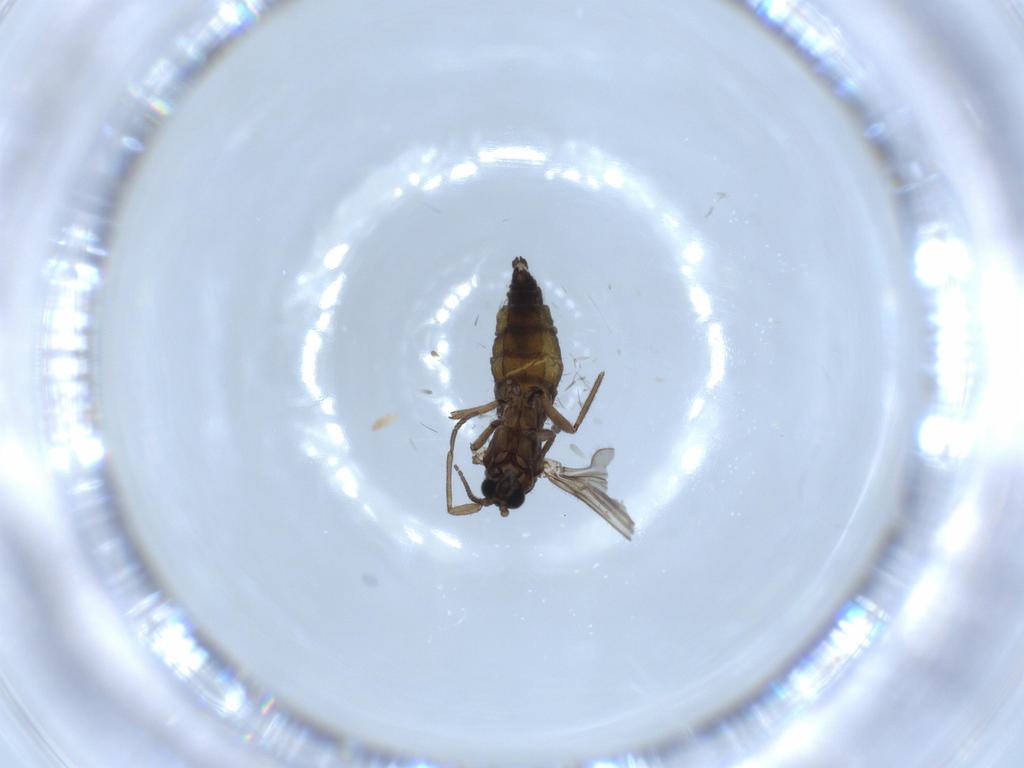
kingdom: Animalia
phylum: Arthropoda
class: Insecta
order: Diptera
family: Sciaridae
